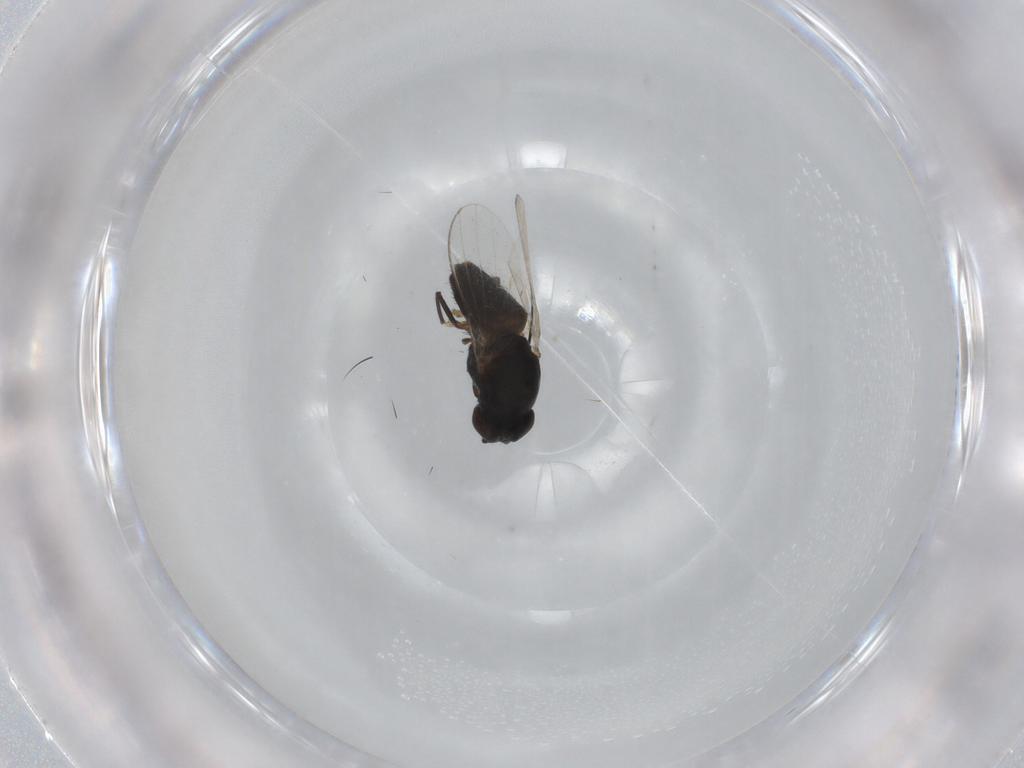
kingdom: Animalia
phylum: Arthropoda
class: Insecta
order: Diptera
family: Milichiidae
